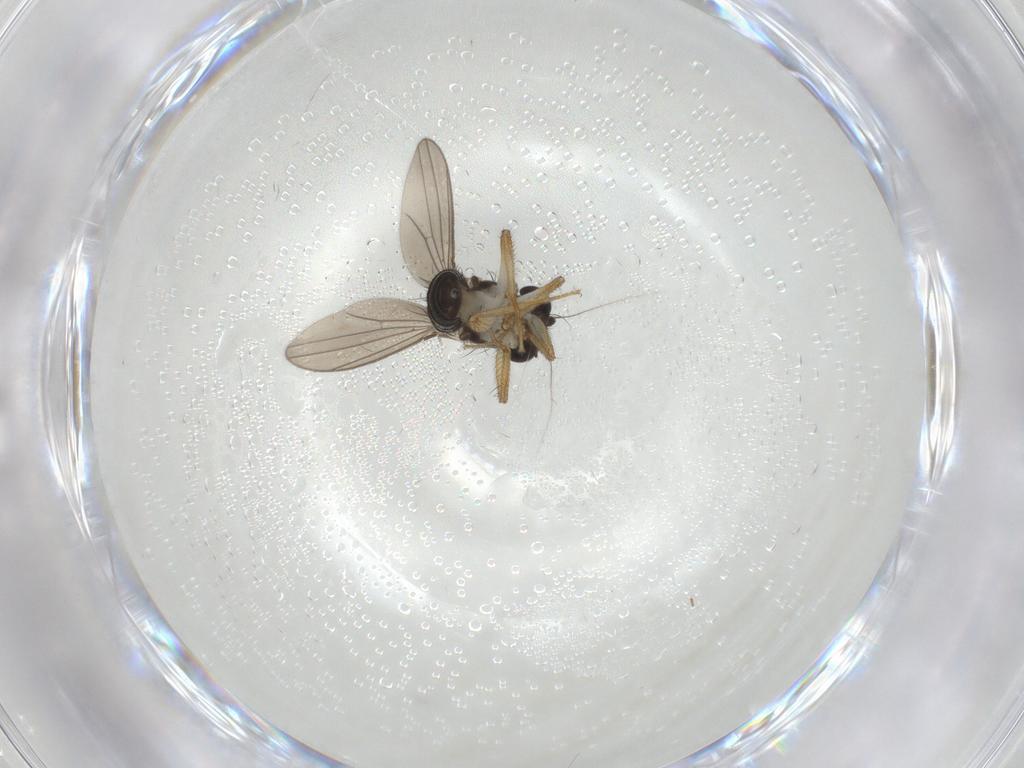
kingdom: Animalia
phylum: Arthropoda
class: Insecta
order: Diptera
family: Inbiomyiidae
